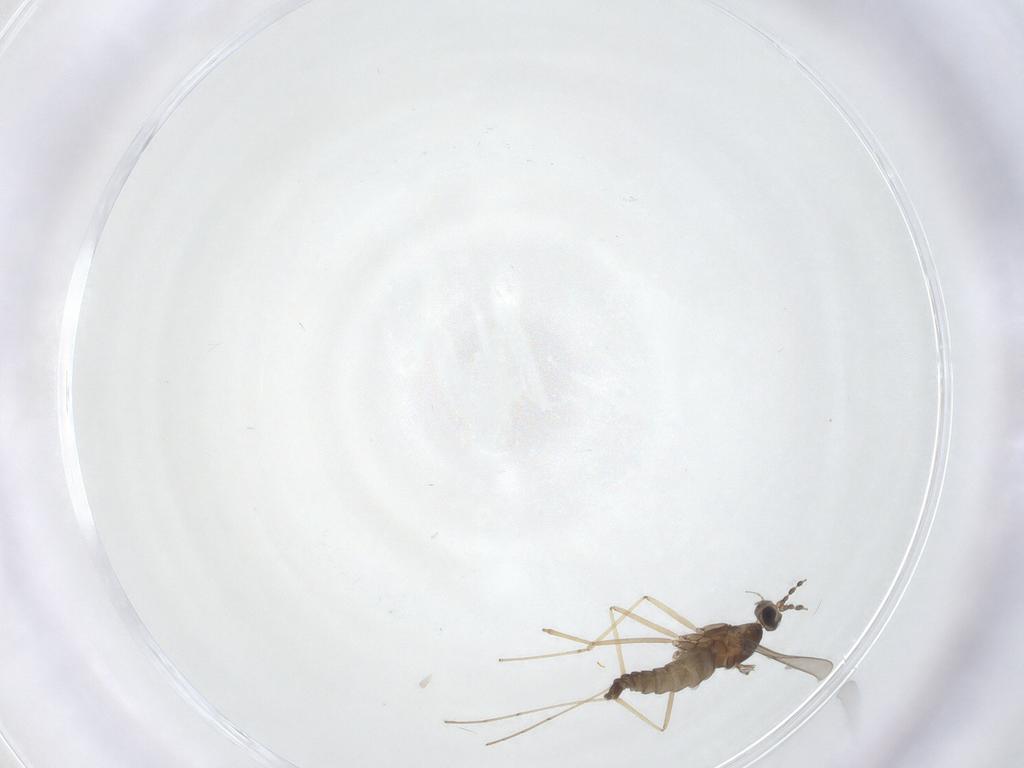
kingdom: Animalia
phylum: Arthropoda
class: Insecta
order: Diptera
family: Cecidomyiidae
